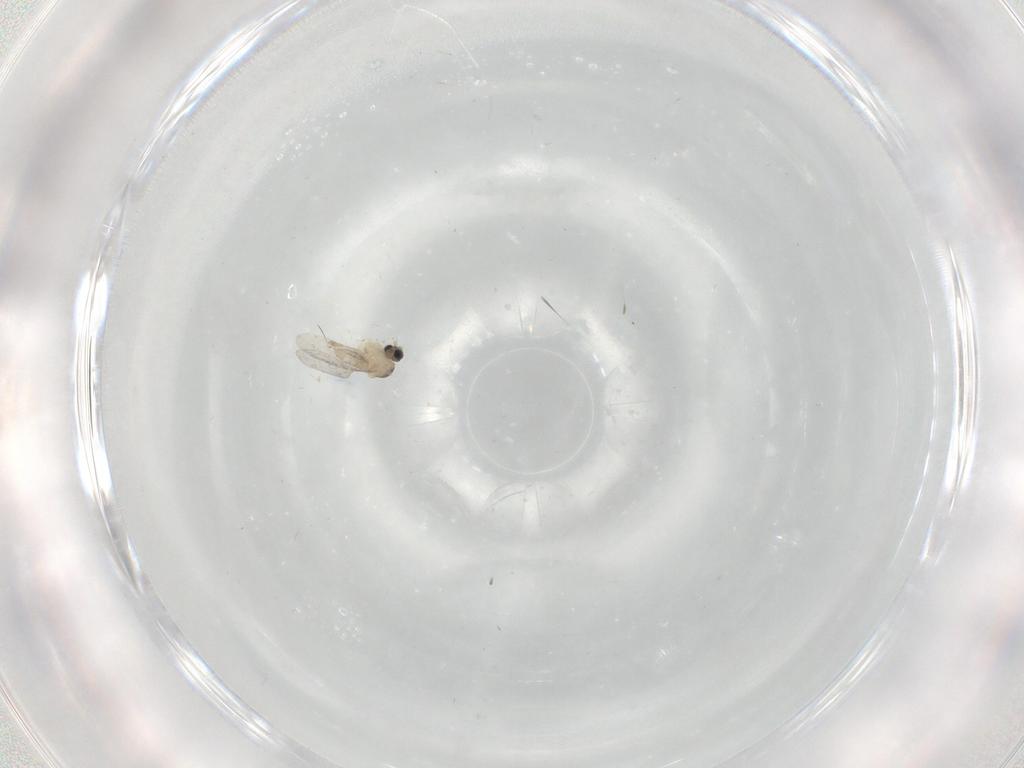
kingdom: Animalia
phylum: Arthropoda
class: Insecta
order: Diptera
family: Cecidomyiidae
